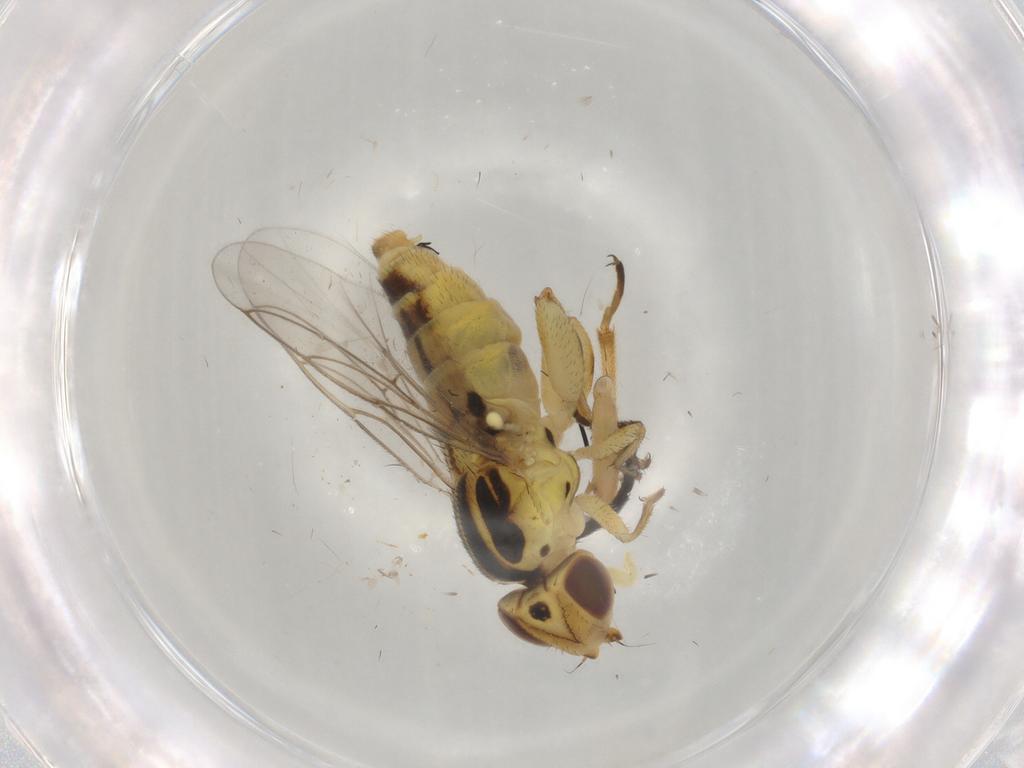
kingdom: Animalia
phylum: Arthropoda
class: Insecta
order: Diptera
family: Chloropidae
